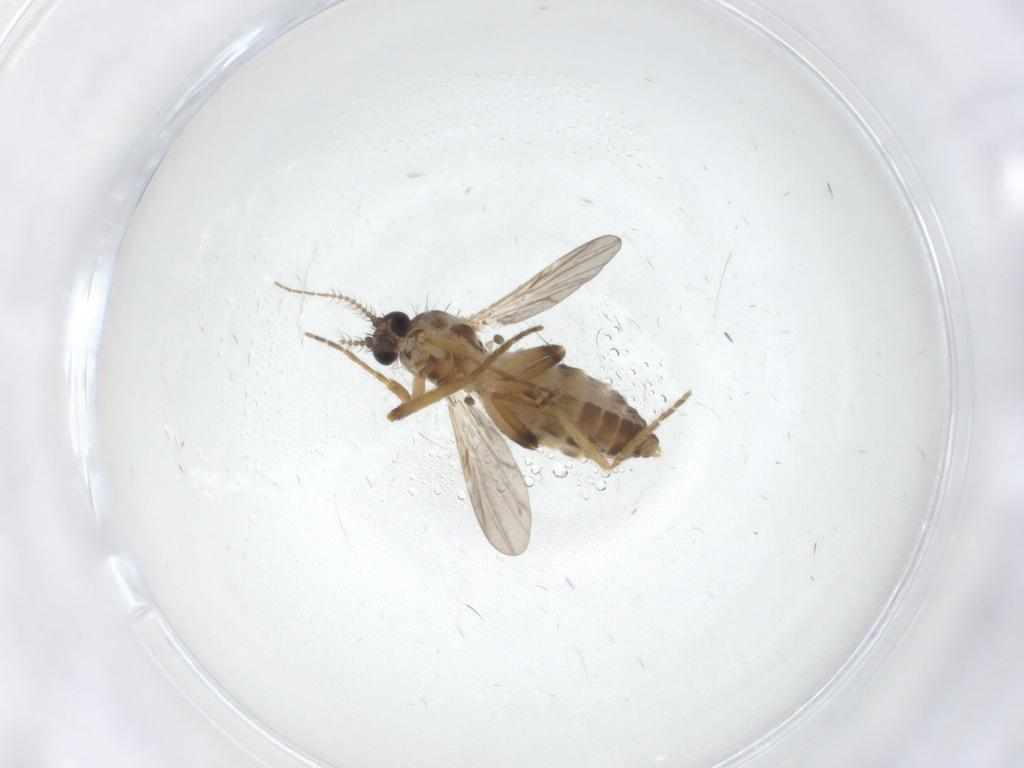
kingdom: Animalia
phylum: Arthropoda
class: Insecta
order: Diptera
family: Ceratopogonidae
